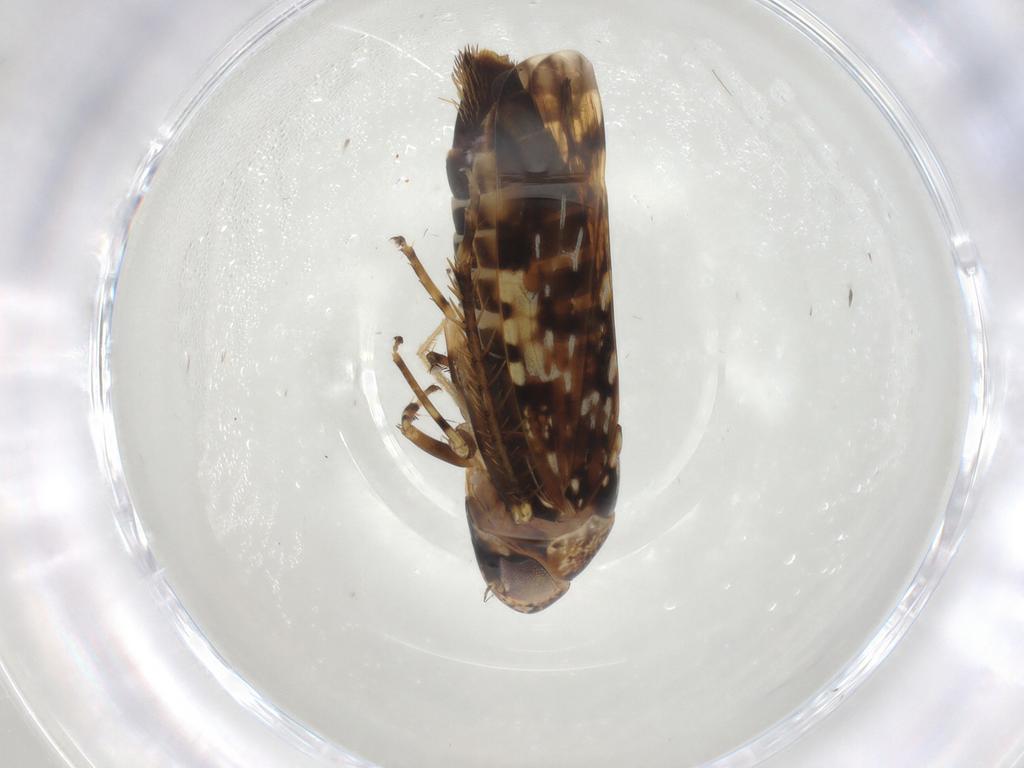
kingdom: Animalia
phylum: Arthropoda
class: Insecta
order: Hemiptera
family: Cicadellidae
